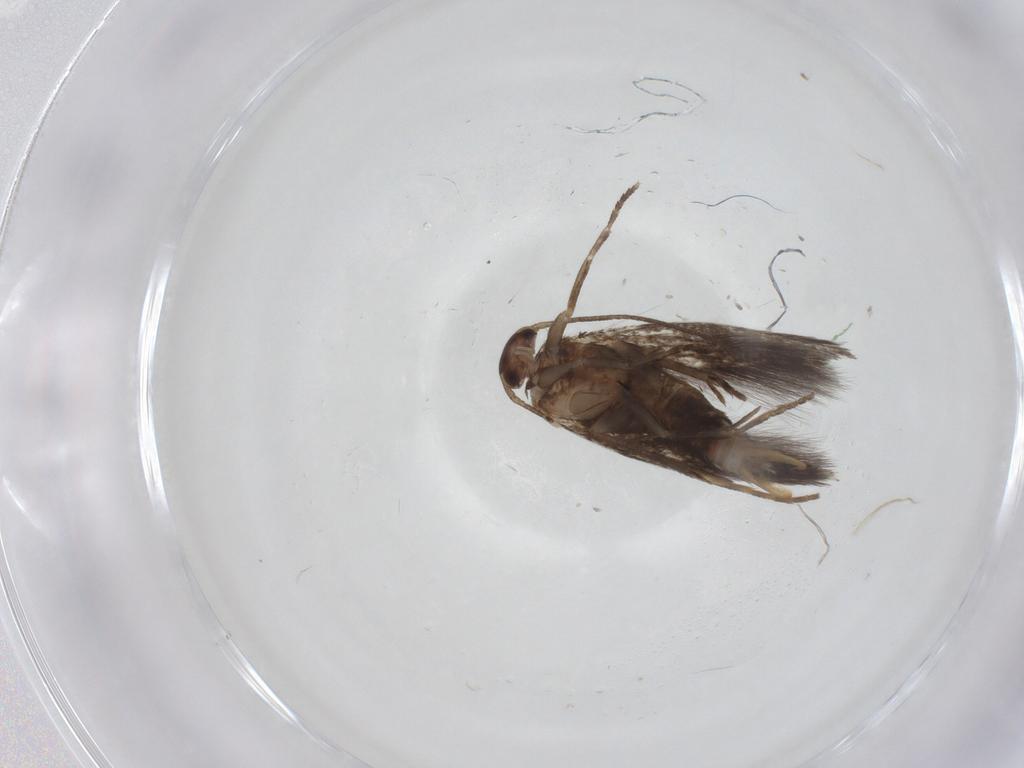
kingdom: Animalia
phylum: Arthropoda
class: Insecta
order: Lepidoptera
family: Elachistidae
